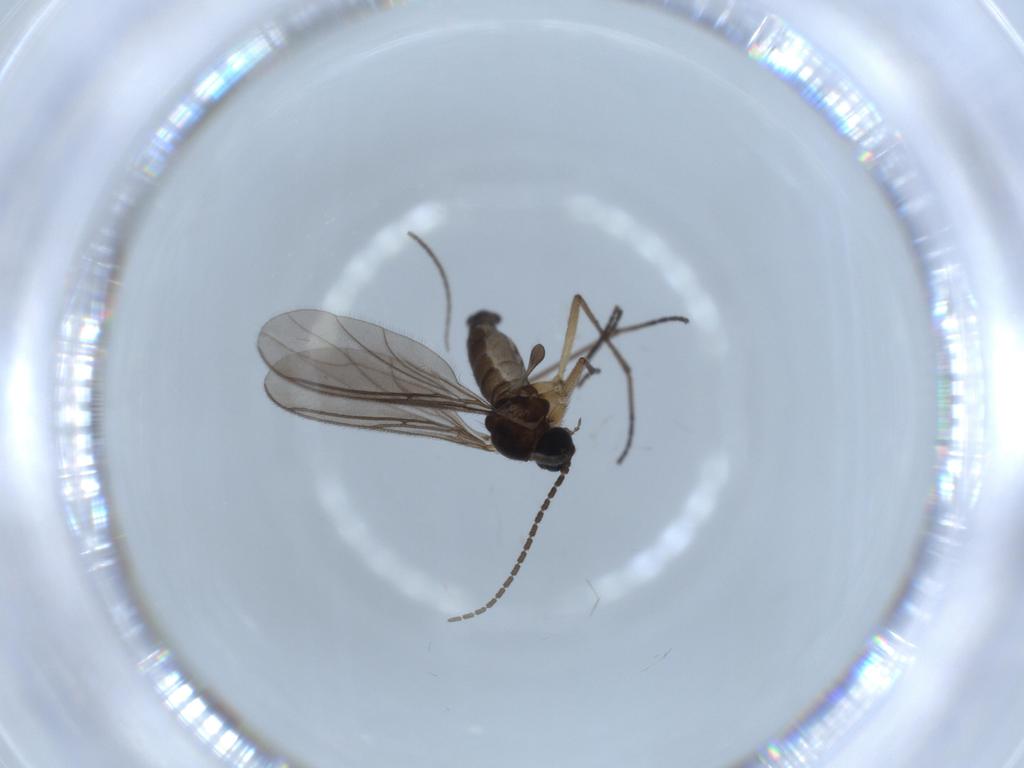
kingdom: Animalia
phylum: Arthropoda
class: Insecta
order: Diptera
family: Sciaridae
